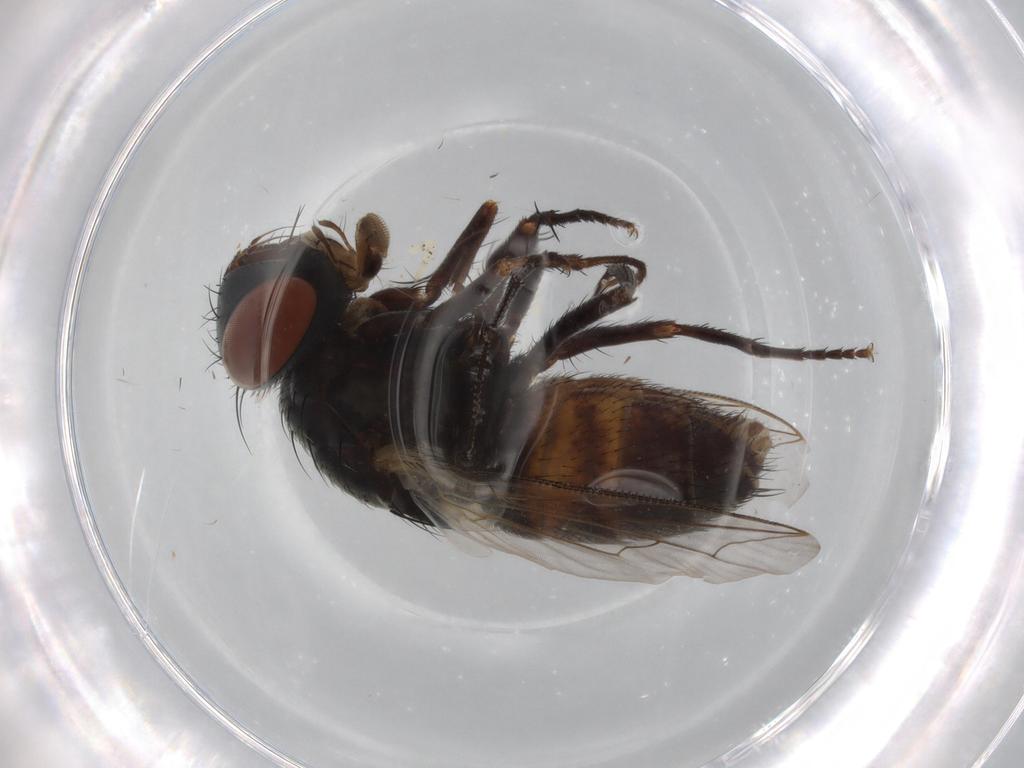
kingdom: Animalia
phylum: Arthropoda
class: Insecta
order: Diptera
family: Sarcophagidae
